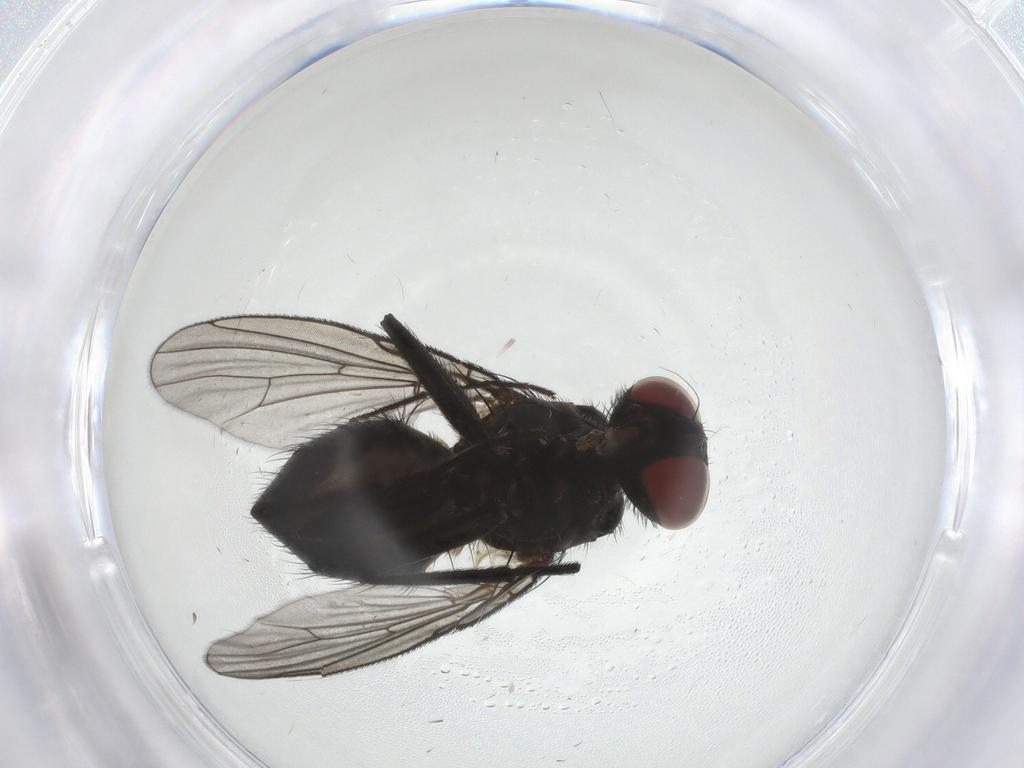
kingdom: Animalia
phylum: Arthropoda
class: Insecta
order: Diptera
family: Muscidae
